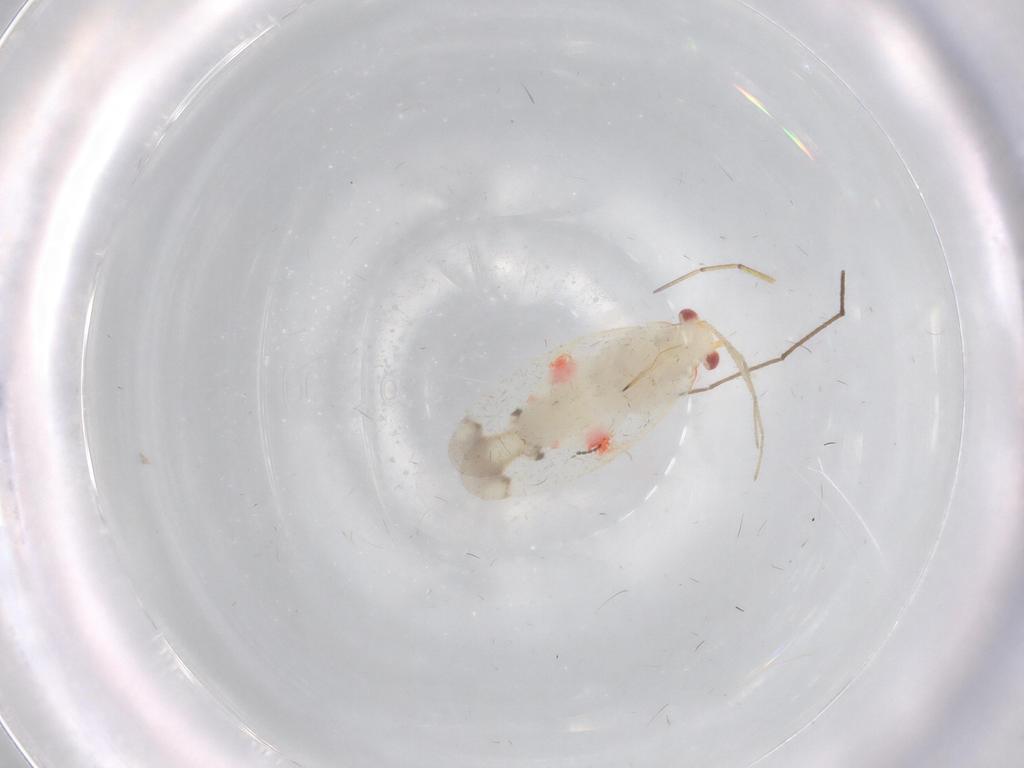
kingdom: Animalia
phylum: Arthropoda
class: Insecta
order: Hemiptera
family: Miridae
